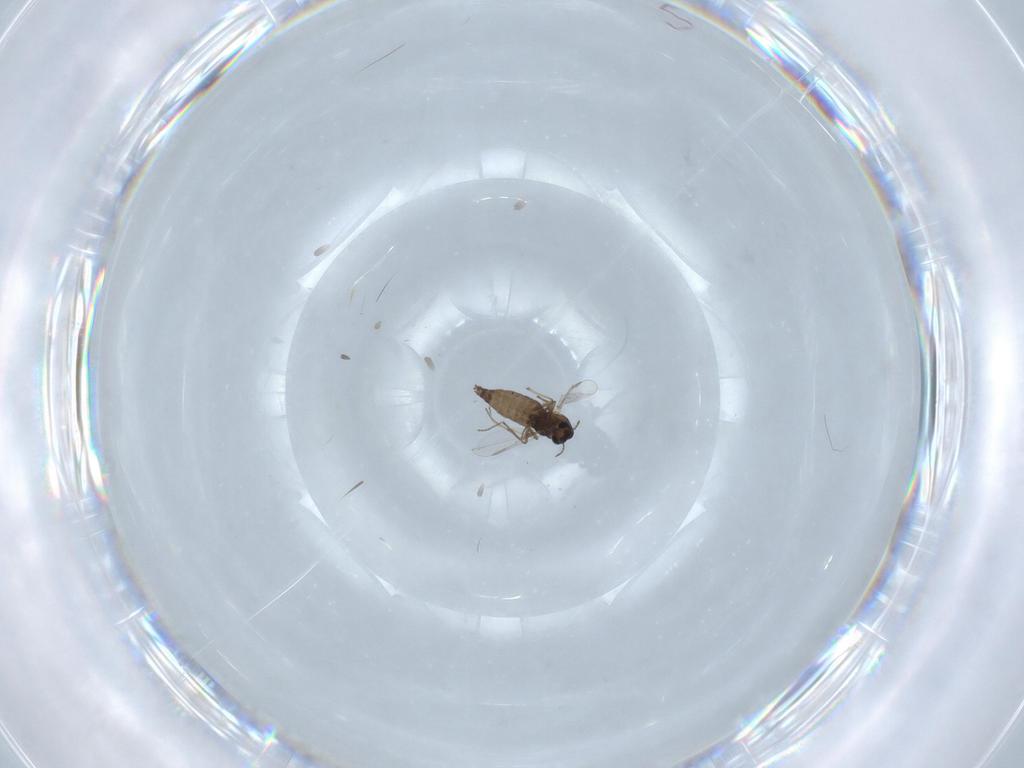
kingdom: Animalia
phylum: Arthropoda
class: Insecta
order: Diptera
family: Chironomidae
